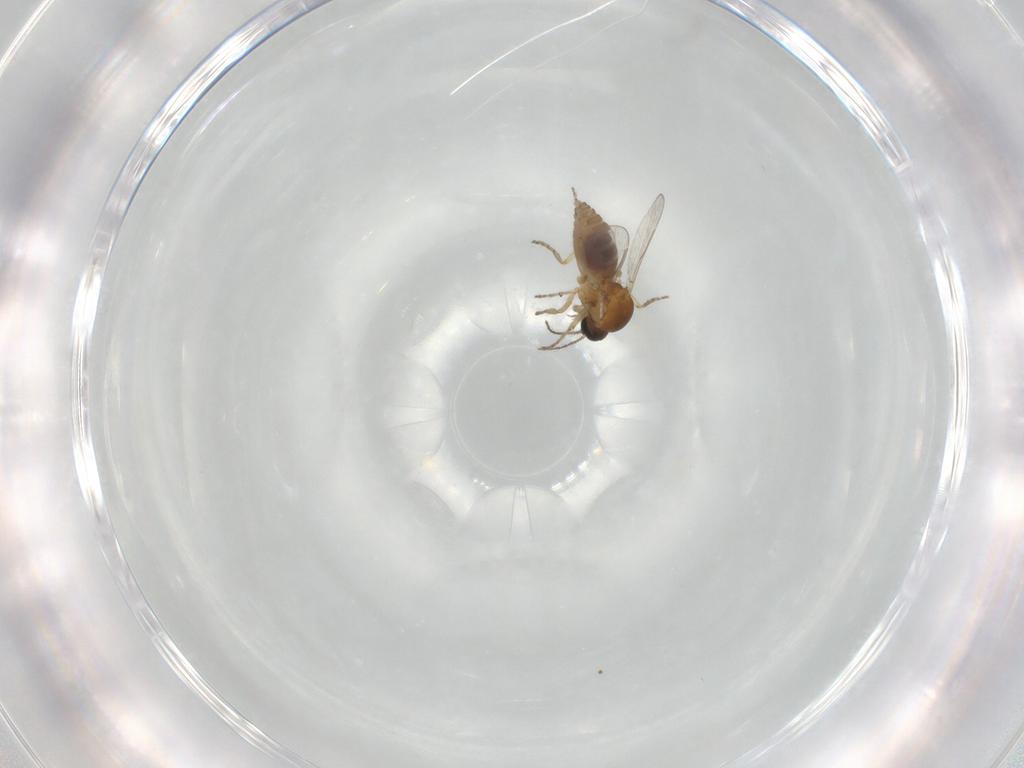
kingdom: Animalia
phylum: Arthropoda
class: Insecta
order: Diptera
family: Ceratopogonidae
